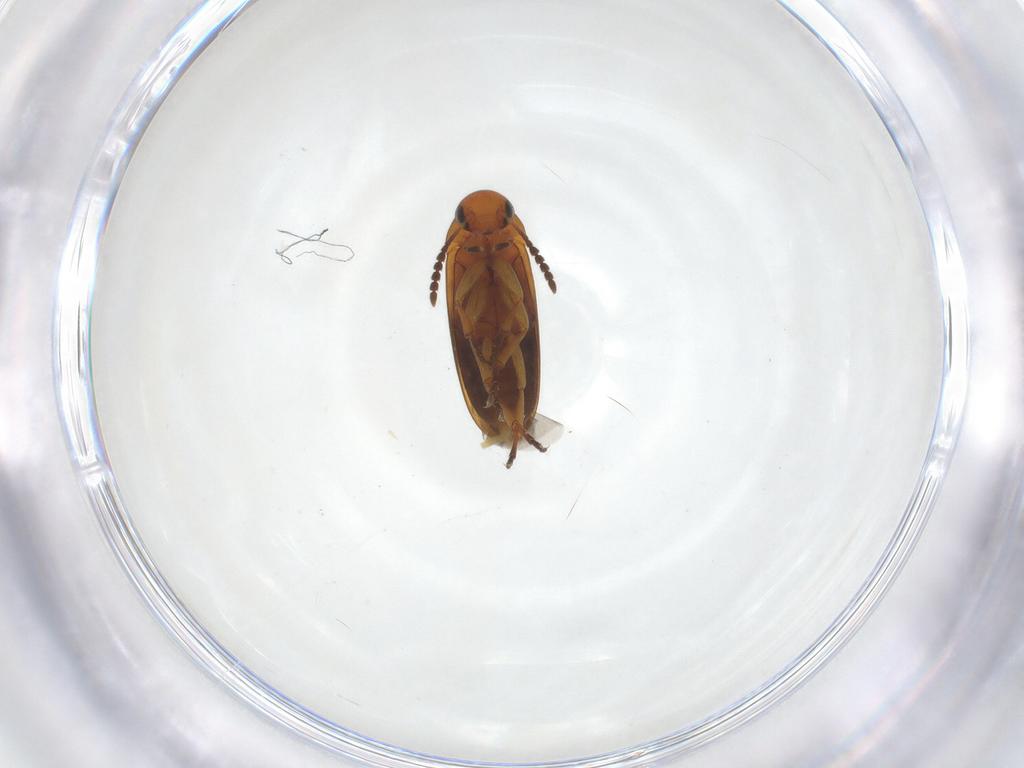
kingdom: Animalia
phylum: Arthropoda
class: Insecta
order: Coleoptera
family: Scraptiidae
